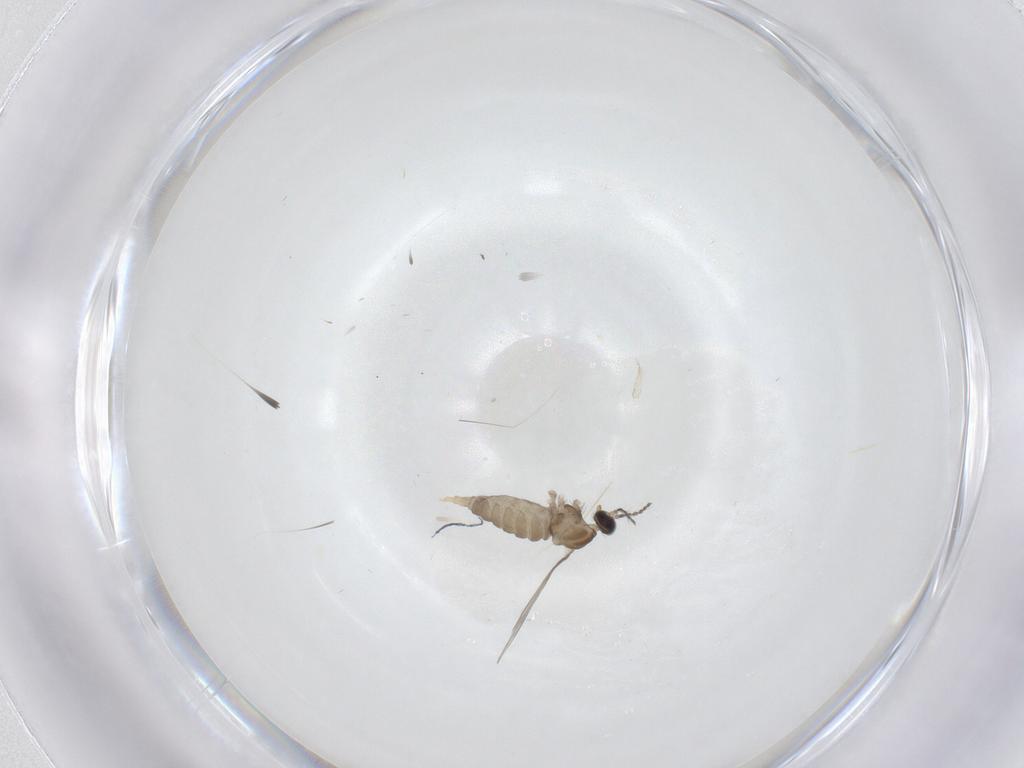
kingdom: Animalia
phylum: Arthropoda
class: Insecta
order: Diptera
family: Cecidomyiidae
